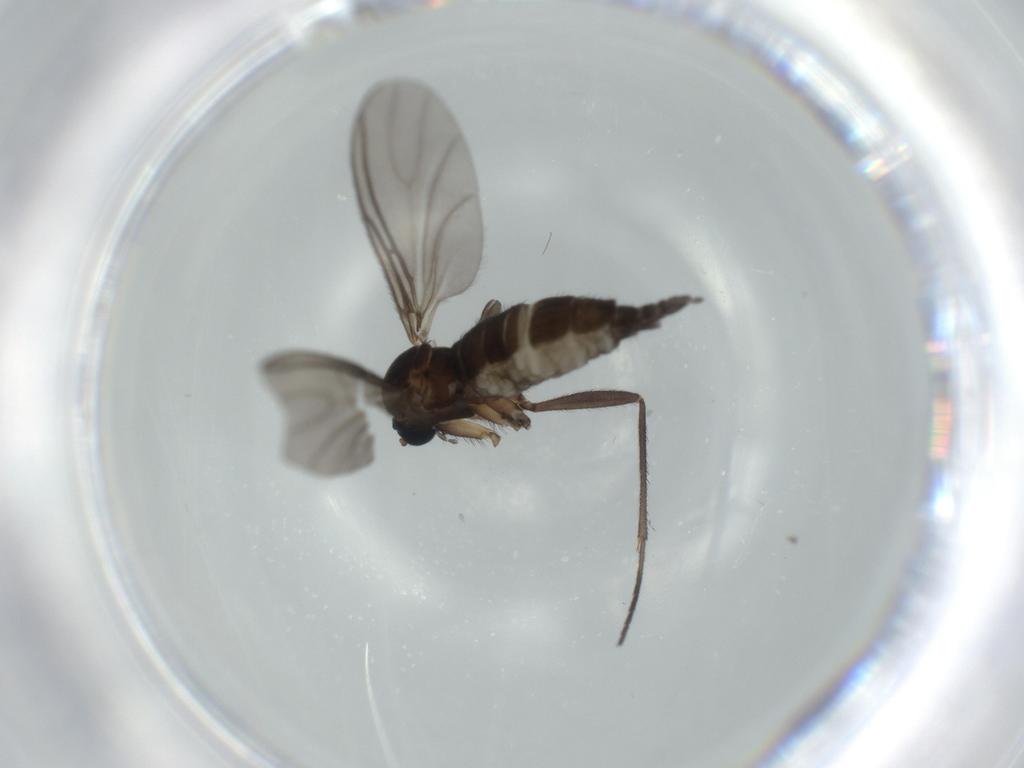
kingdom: Animalia
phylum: Arthropoda
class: Insecta
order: Diptera
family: Sciaridae
